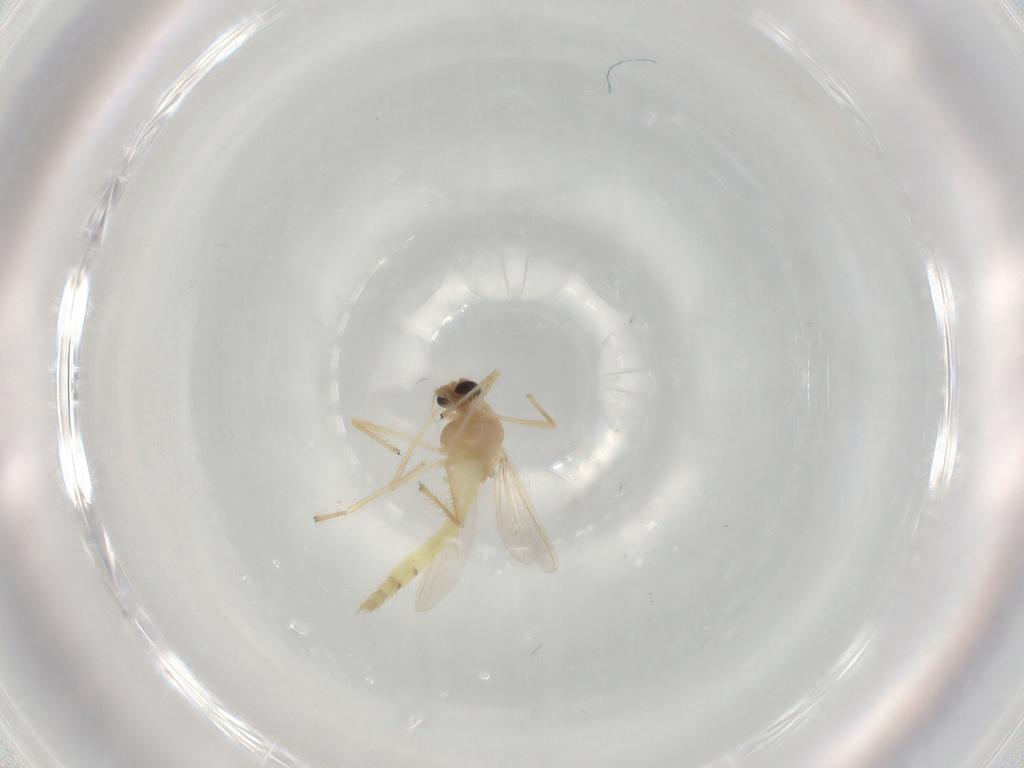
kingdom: Animalia
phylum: Arthropoda
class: Insecta
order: Diptera
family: Chironomidae
